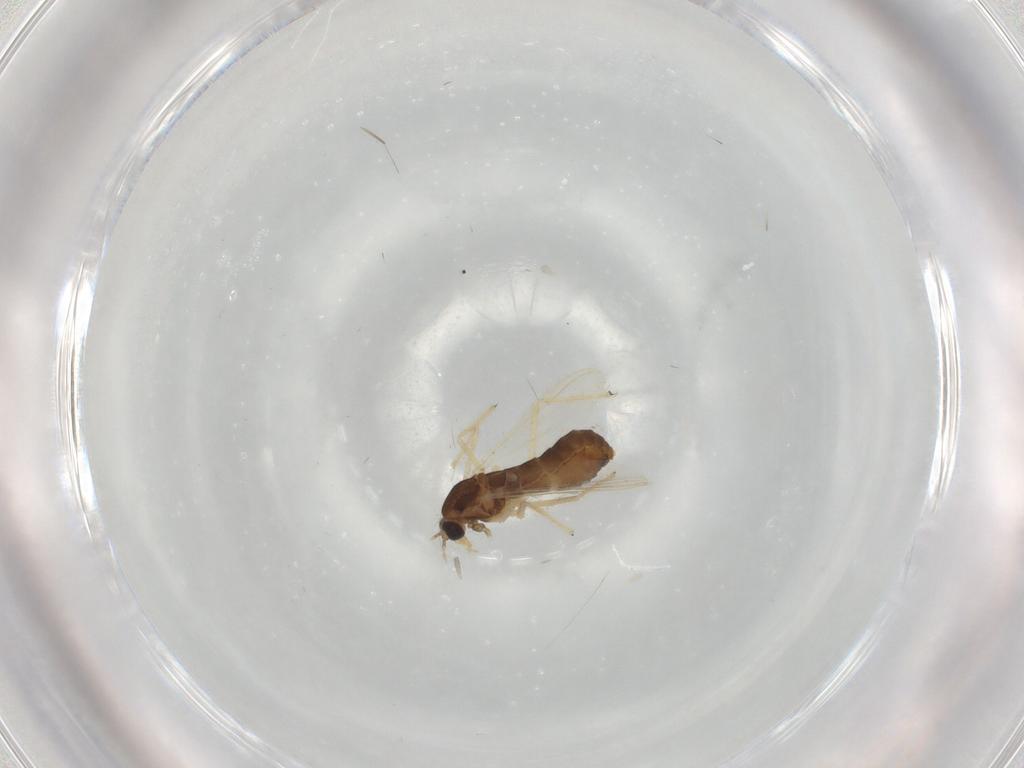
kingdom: Animalia
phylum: Arthropoda
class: Insecta
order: Diptera
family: Chironomidae
